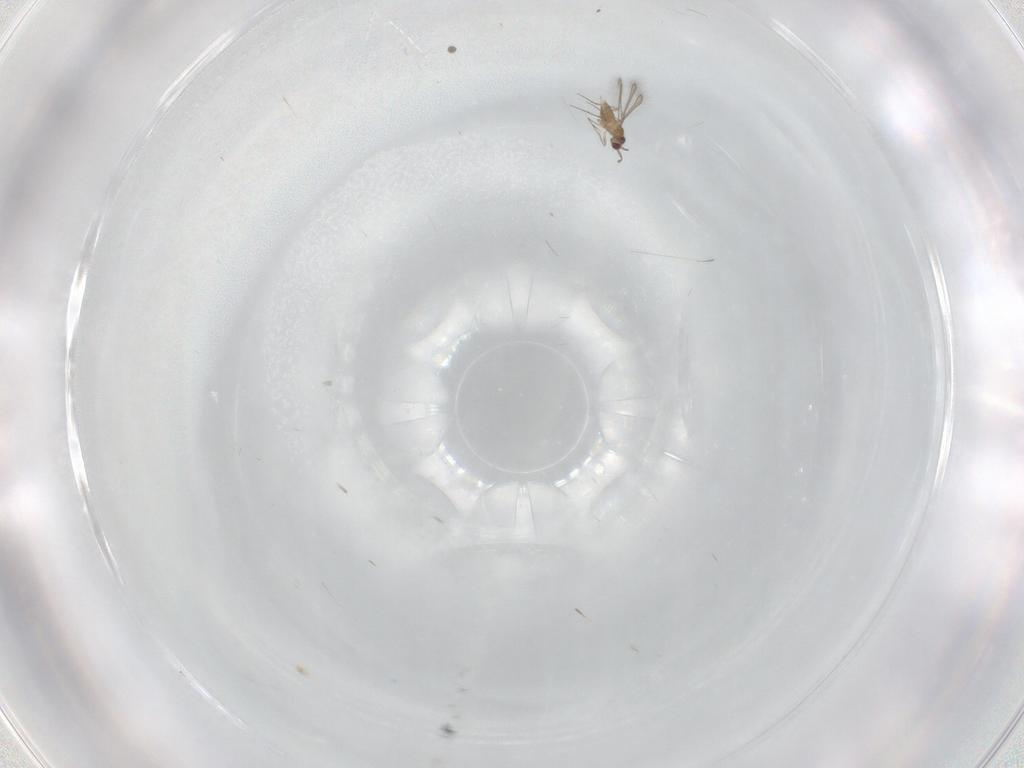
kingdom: Animalia
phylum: Arthropoda
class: Insecta
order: Hymenoptera
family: Mymaridae
